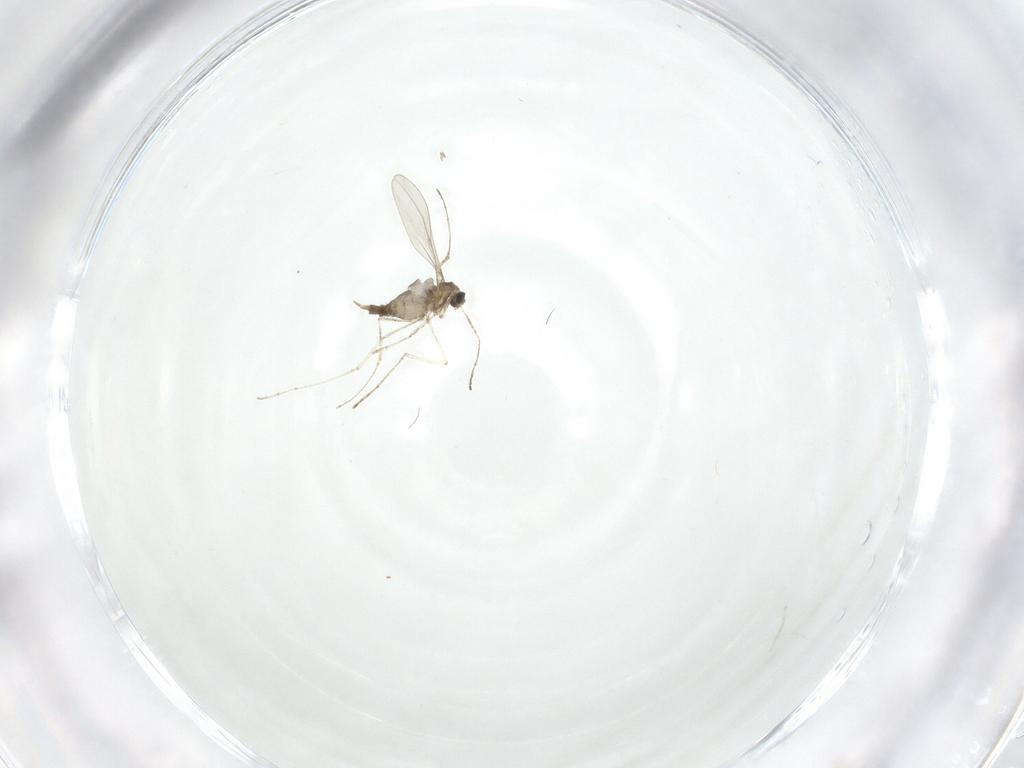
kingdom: Animalia
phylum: Arthropoda
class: Insecta
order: Diptera
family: Cecidomyiidae
